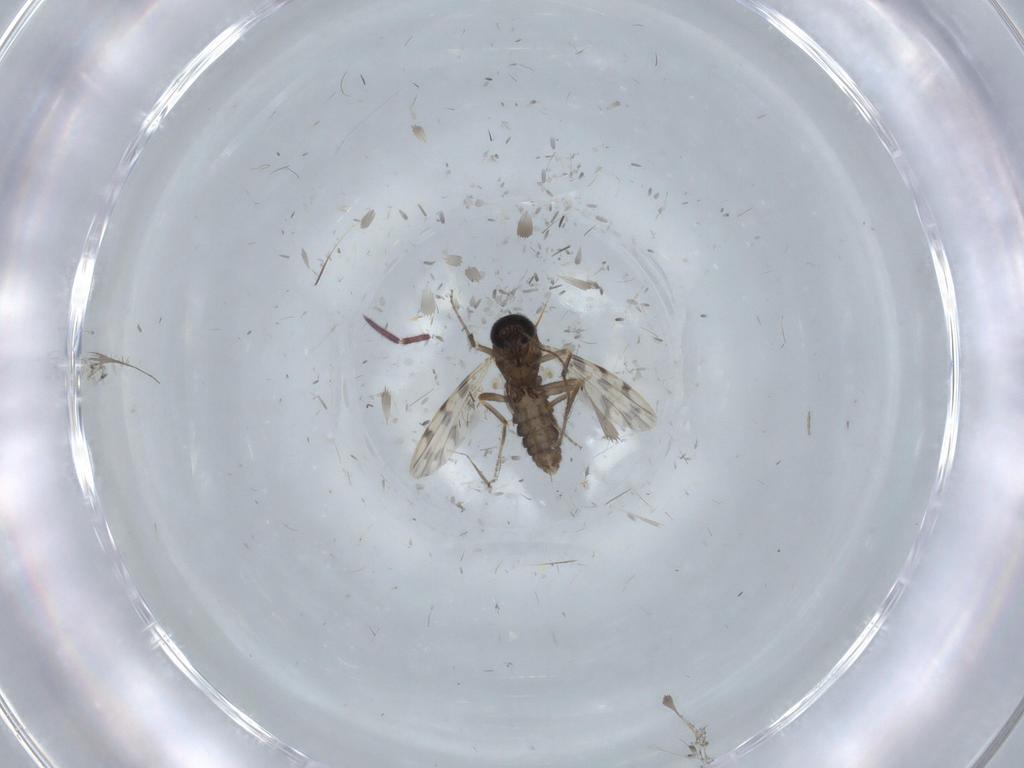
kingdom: Animalia
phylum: Arthropoda
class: Insecta
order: Diptera
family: Ceratopogonidae
